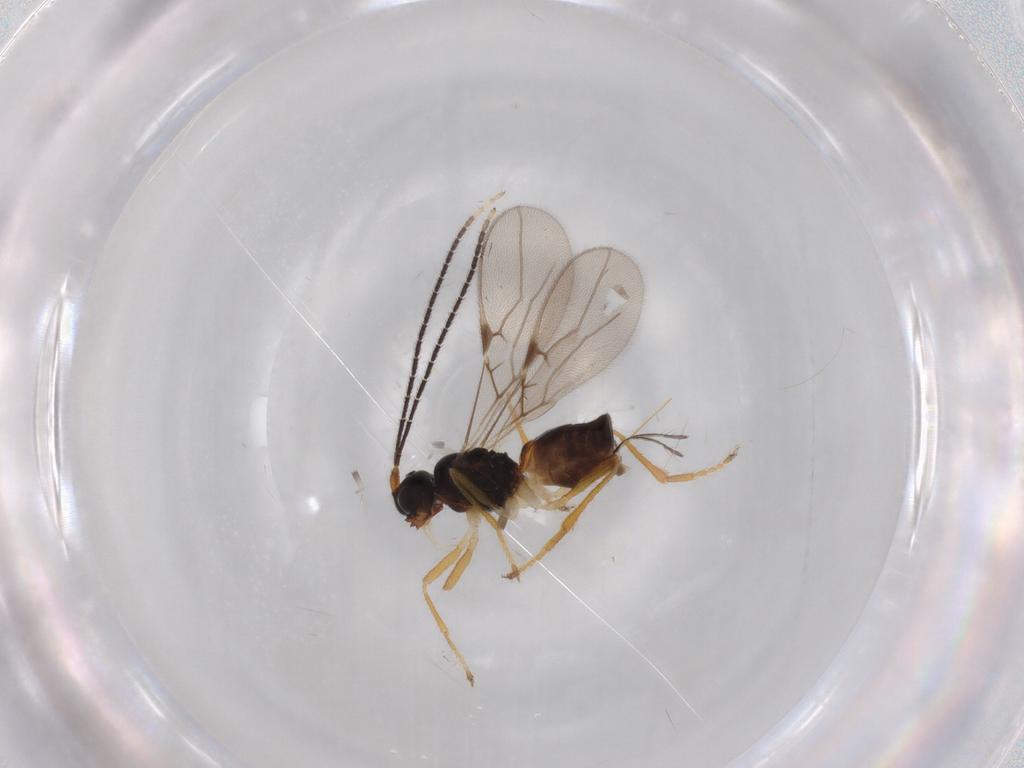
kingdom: Animalia
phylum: Arthropoda
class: Insecta
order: Hymenoptera
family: Braconidae
